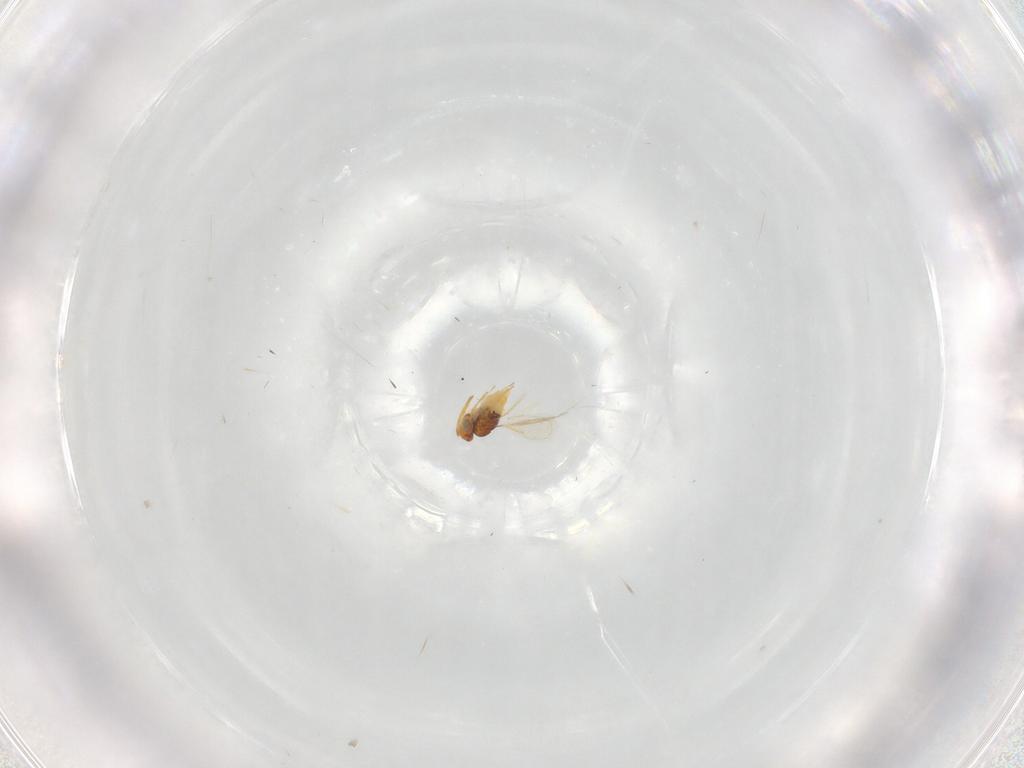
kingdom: Animalia
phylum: Arthropoda
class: Insecta
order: Hymenoptera
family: Aphelinidae
